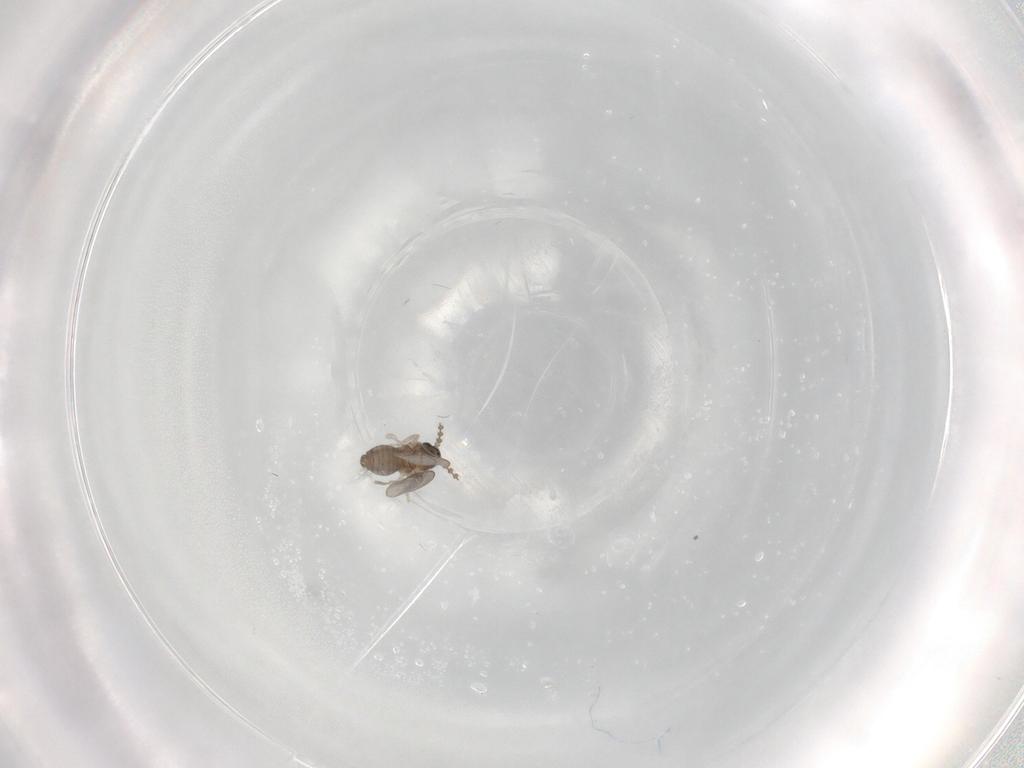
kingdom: Animalia
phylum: Arthropoda
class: Insecta
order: Diptera
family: Cecidomyiidae
